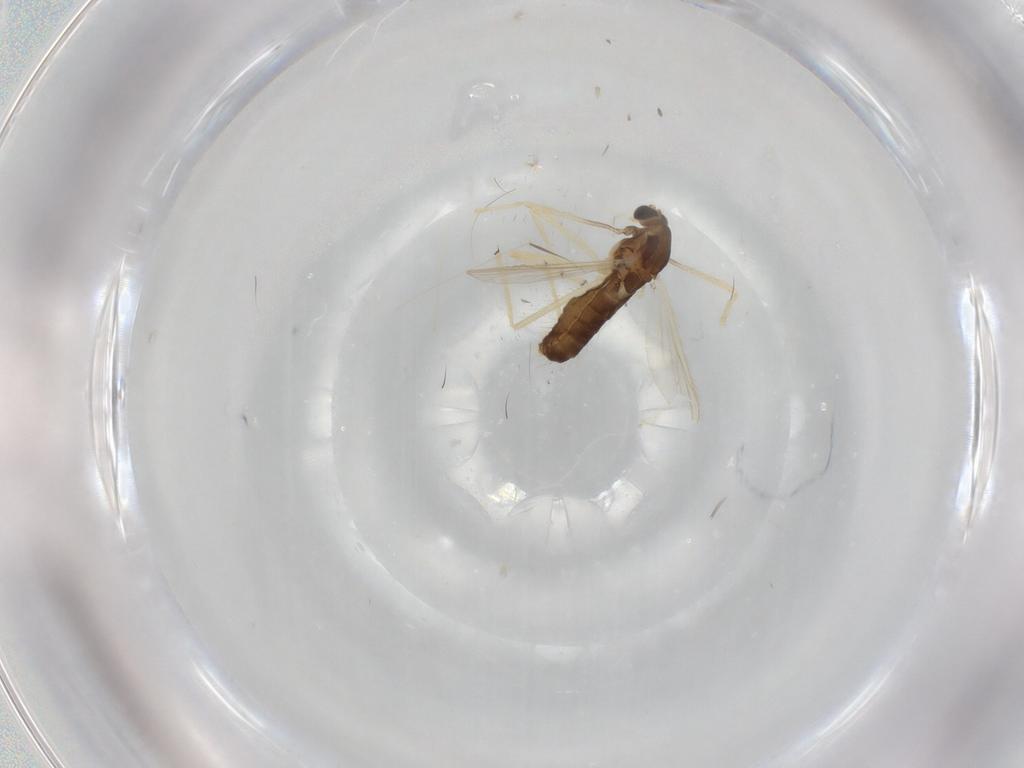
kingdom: Animalia
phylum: Arthropoda
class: Insecta
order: Diptera
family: Chironomidae
